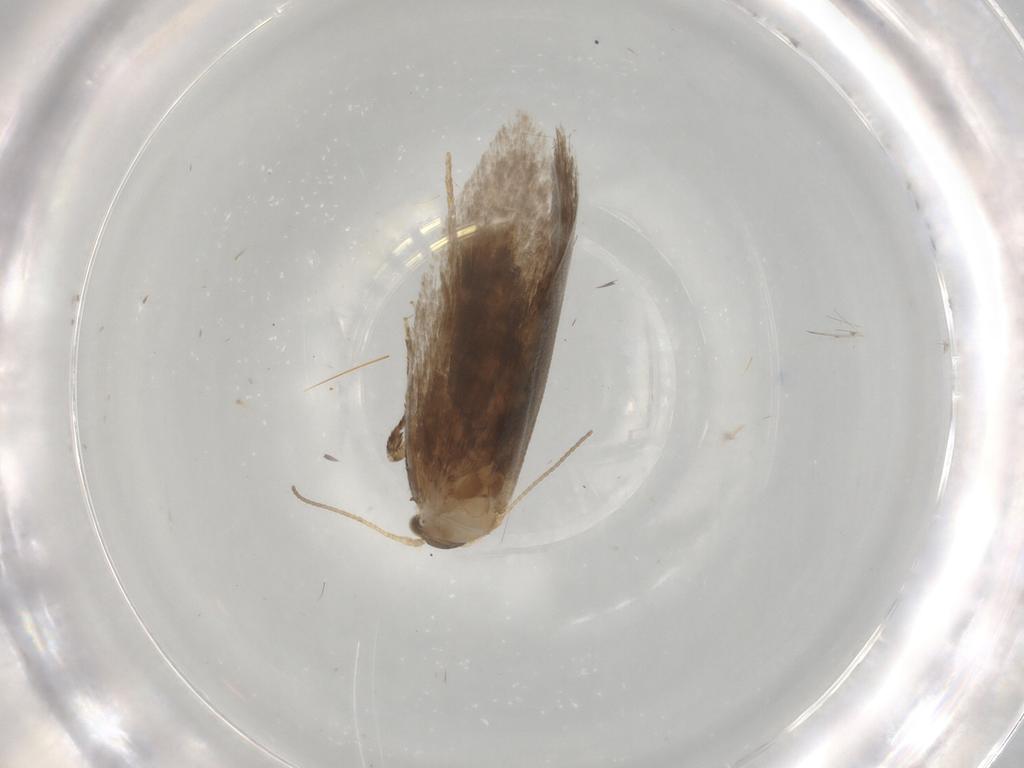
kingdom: Animalia
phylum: Arthropoda
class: Insecta
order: Lepidoptera
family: Dryadaulidae
